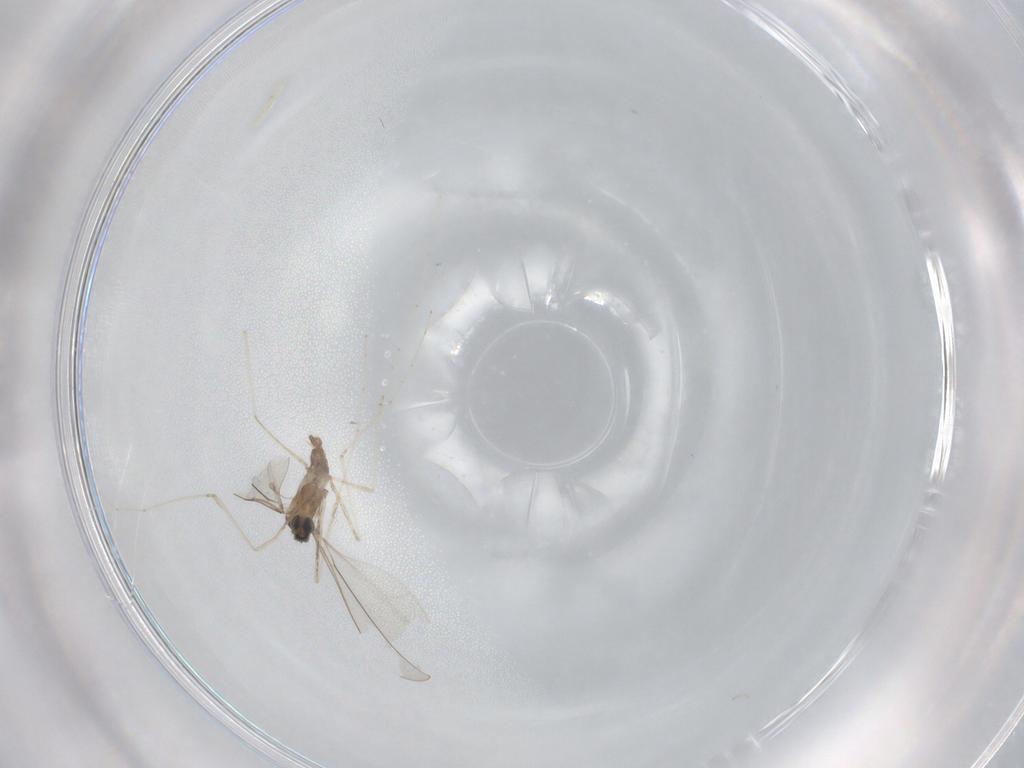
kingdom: Animalia
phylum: Arthropoda
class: Insecta
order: Diptera
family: Cecidomyiidae
